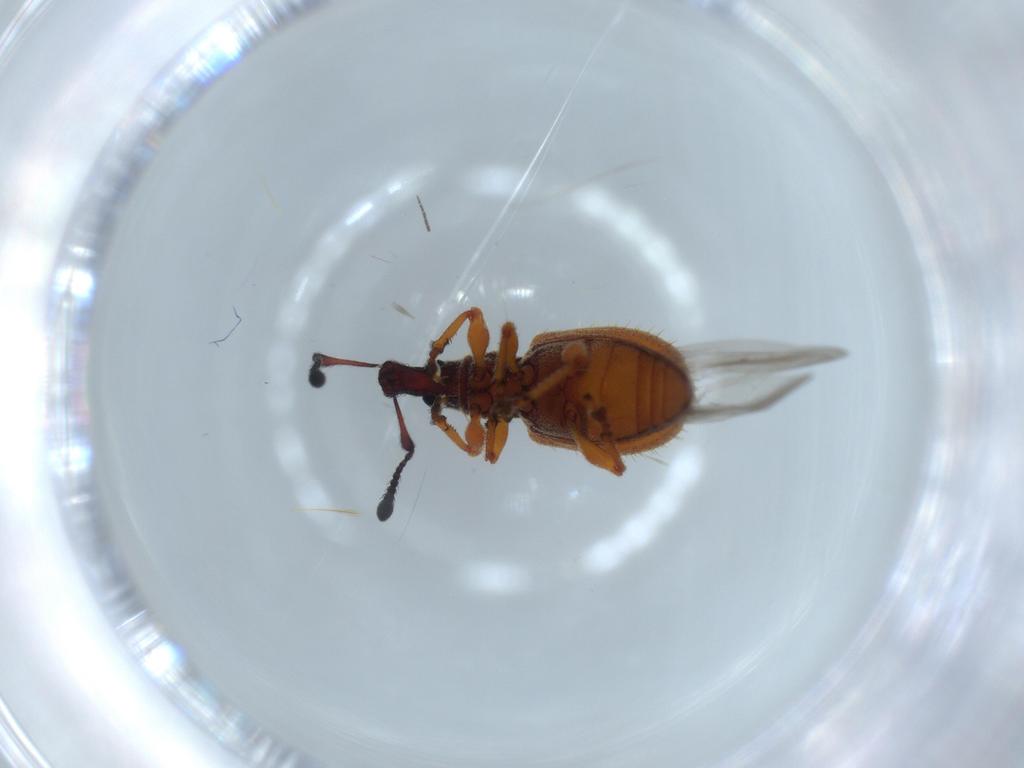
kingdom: Animalia
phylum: Arthropoda
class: Insecta
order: Coleoptera
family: Curculionidae
